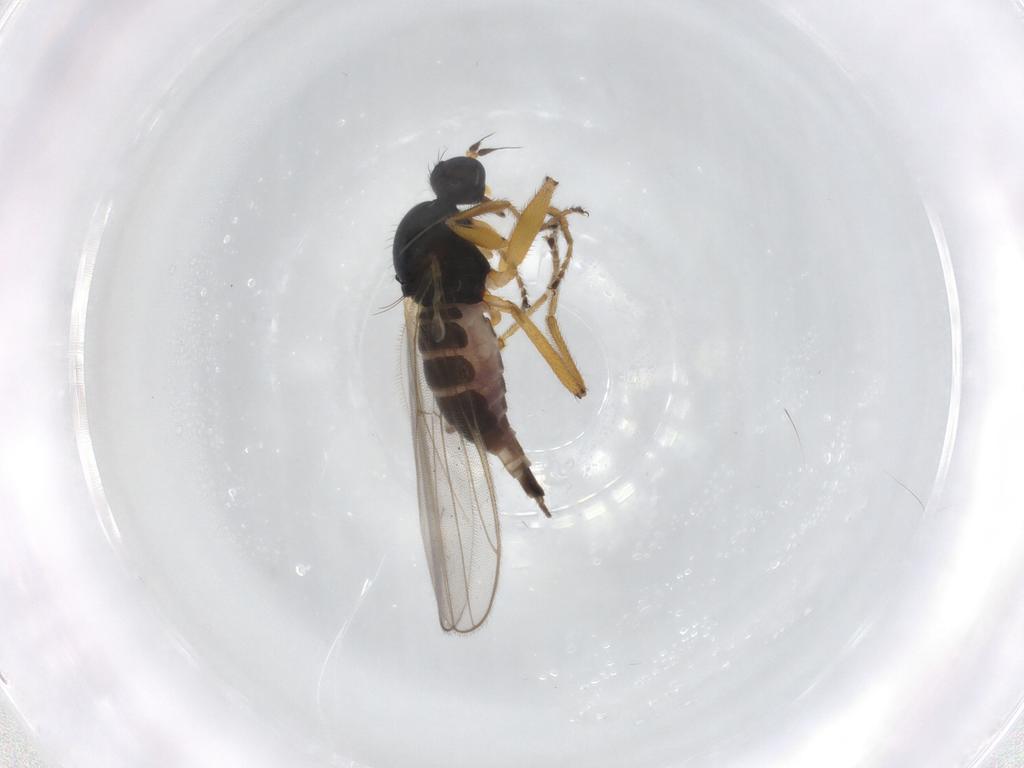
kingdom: Animalia
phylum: Arthropoda
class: Insecta
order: Diptera
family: Hybotidae
